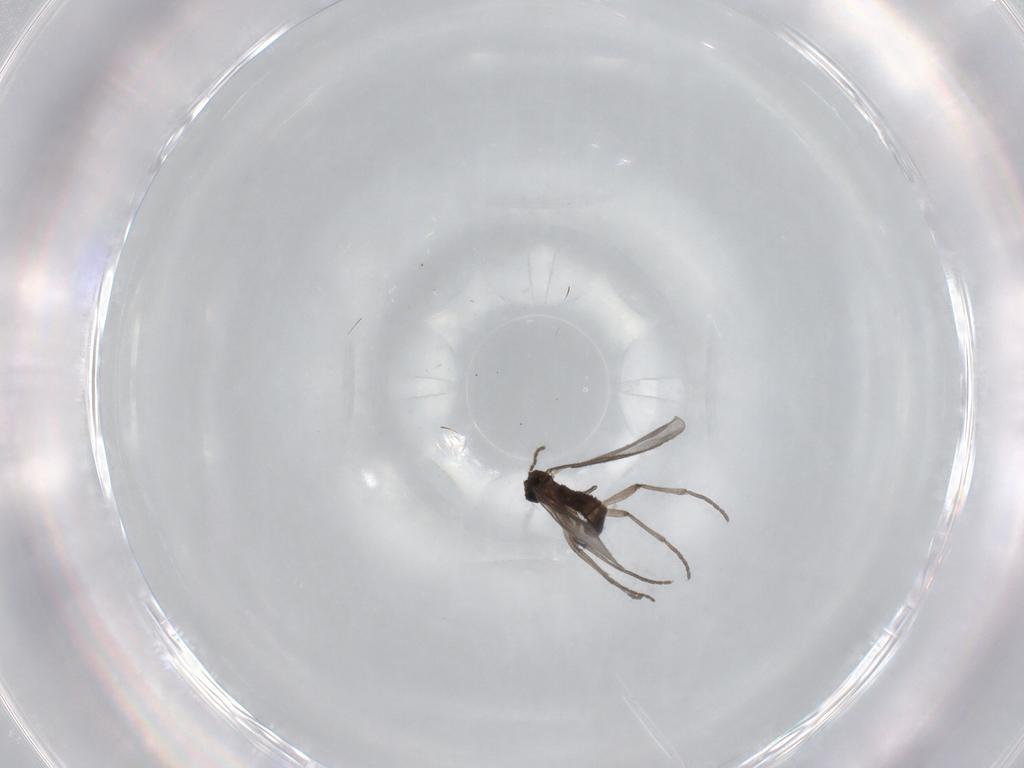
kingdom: Animalia
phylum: Arthropoda
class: Insecta
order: Diptera
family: Sciaridae
